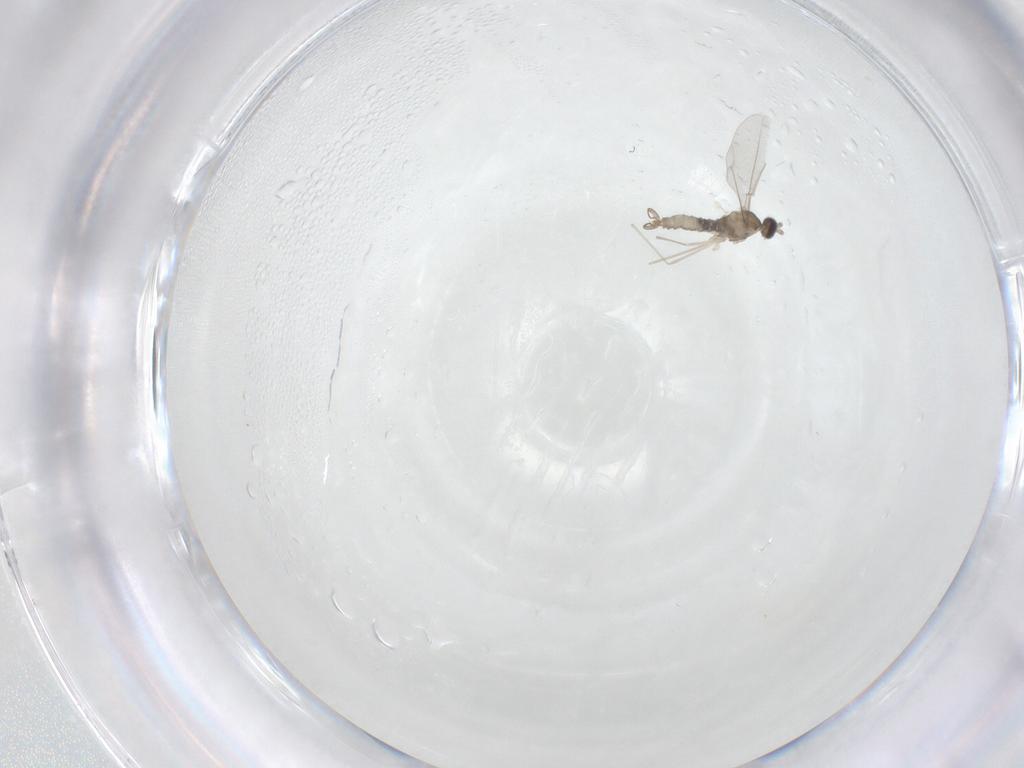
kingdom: Animalia
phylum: Arthropoda
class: Insecta
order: Diptera
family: Cecidomyiidae
